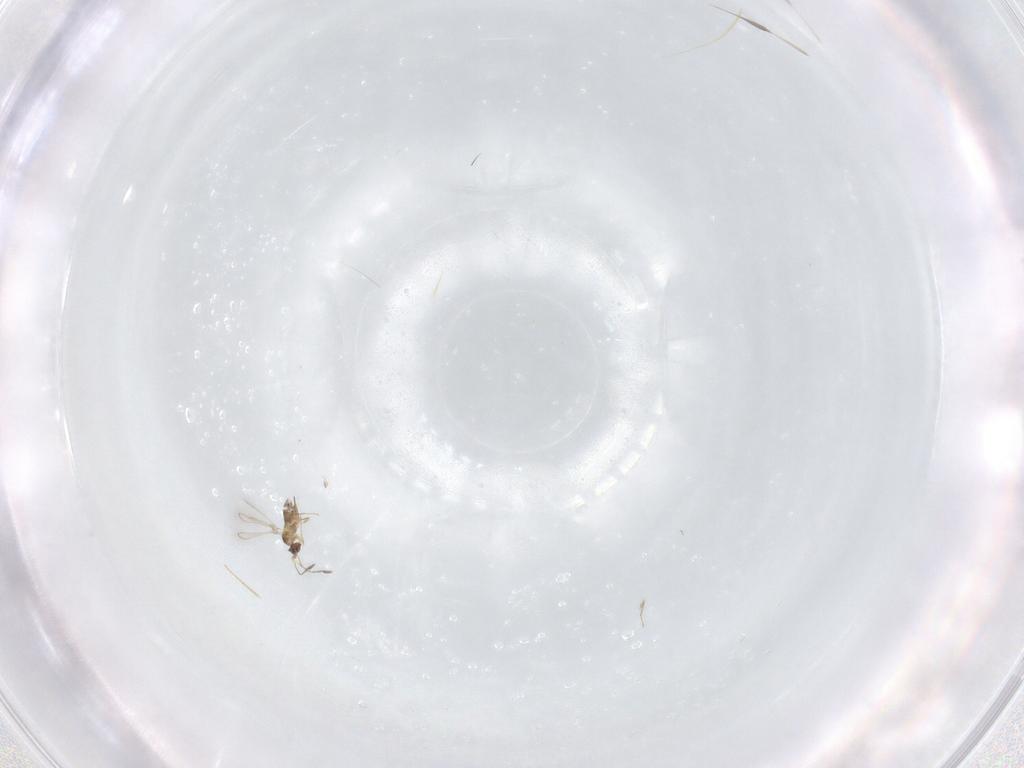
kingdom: Animalia
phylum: Arthropoda
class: Insecta
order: Hymenoptera
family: Mymaridae
